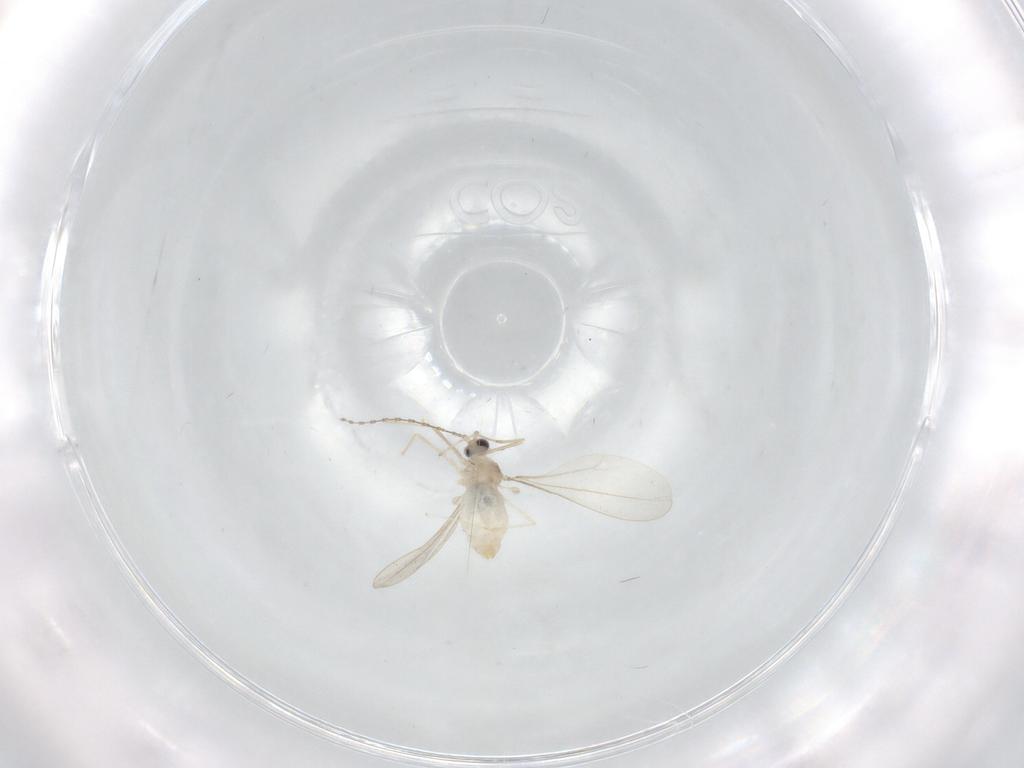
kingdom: Animalia
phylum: Arthropoda
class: Insecta
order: Diptera
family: Cecidomyiidae
